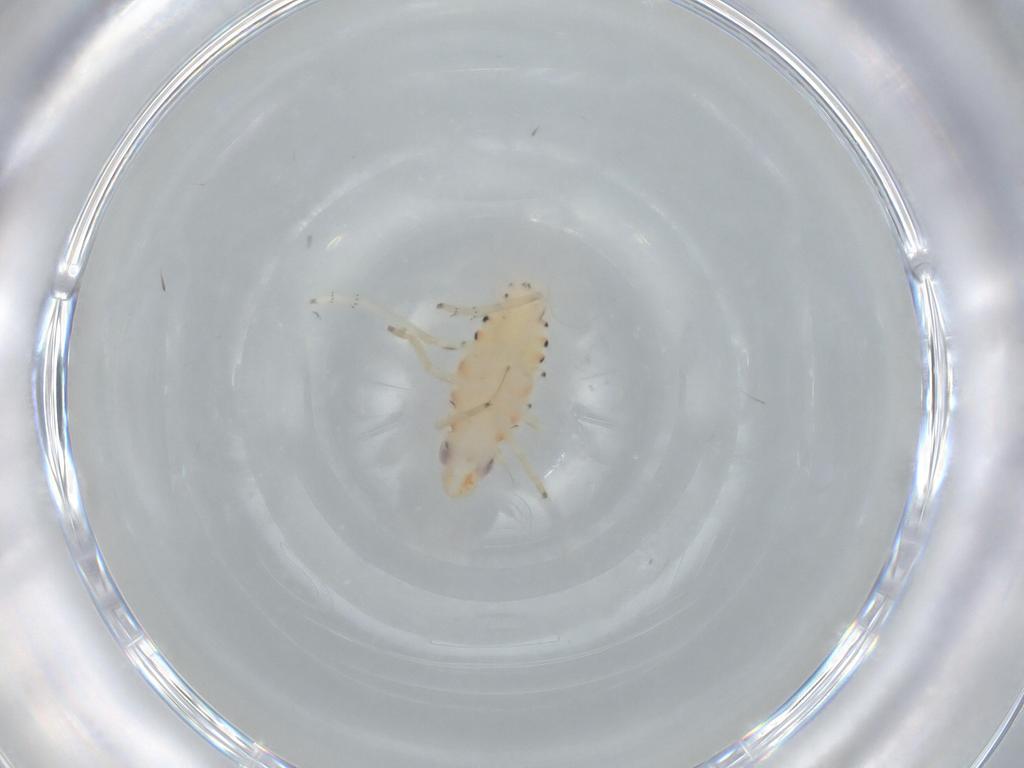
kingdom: Animalia
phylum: Arthropoda
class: Insecta
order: Hemiptera
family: Tropiduchidae
